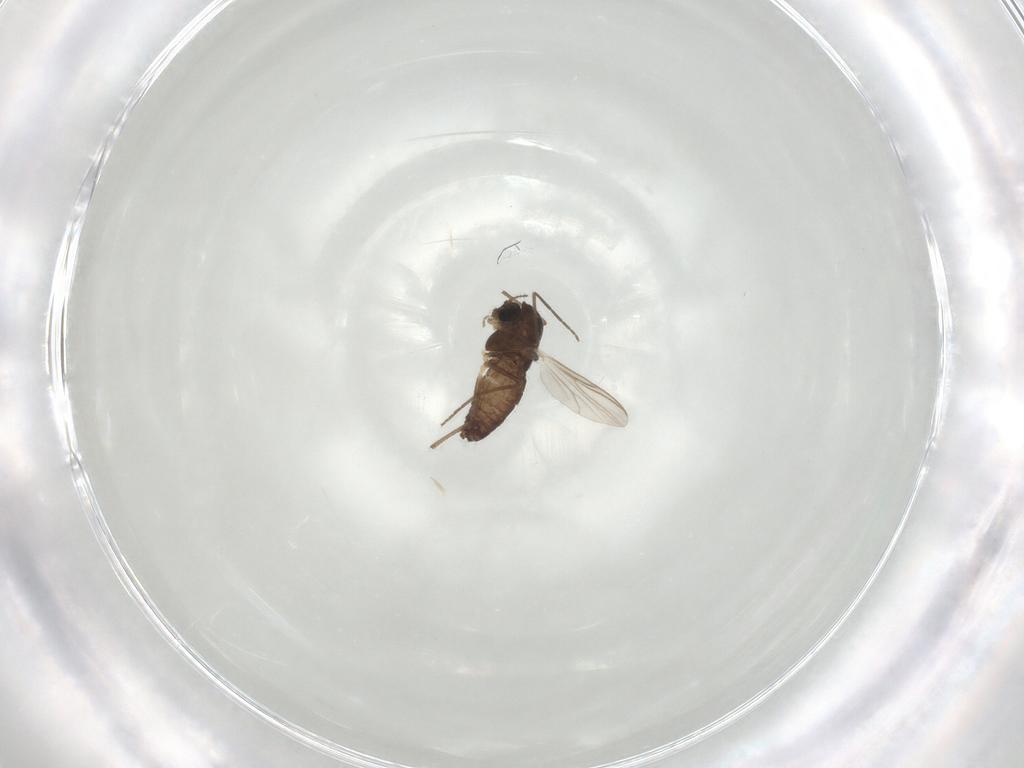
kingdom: Animalia
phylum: Arthropoda
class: Insecta
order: Diptera
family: Chironomidae
